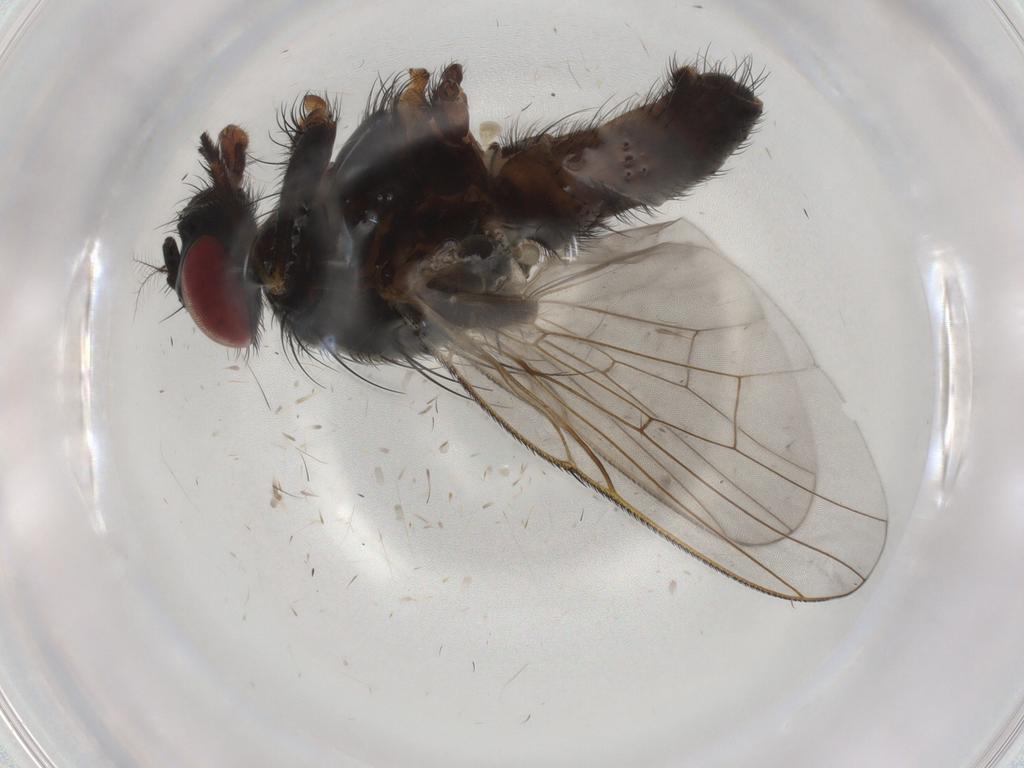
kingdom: Animalia
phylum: Arthropoda
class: Insecta
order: Diptera
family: Muscidae
